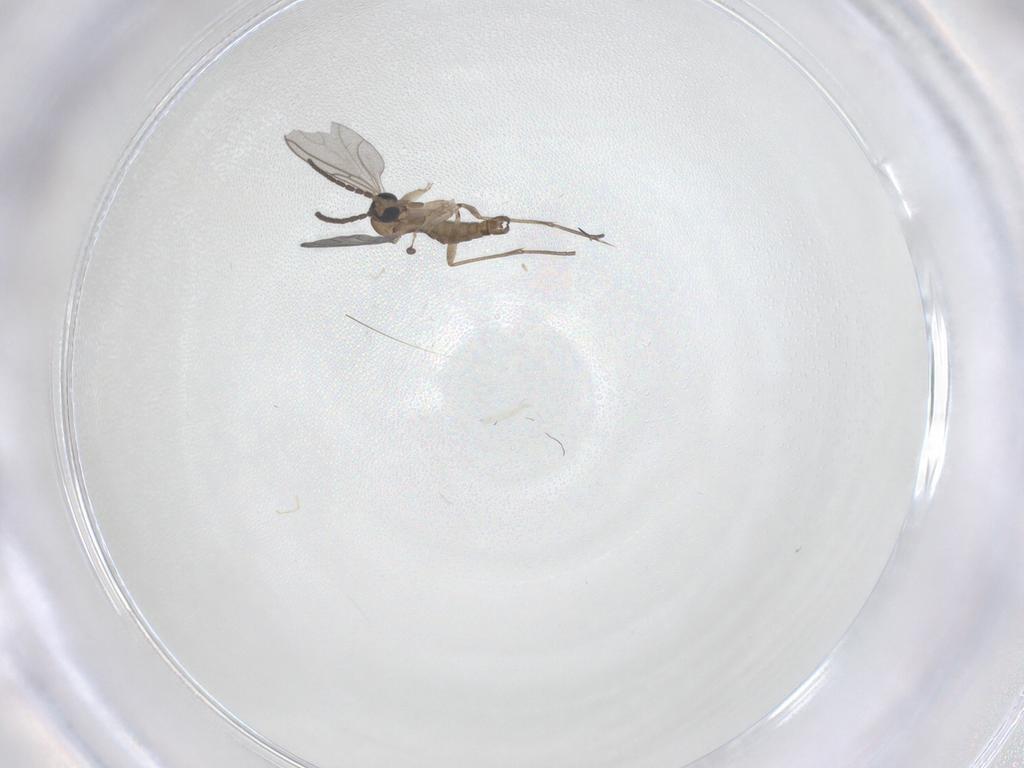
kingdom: Animalia
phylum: Arthropoda
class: Insecta
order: Diptera
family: Sciaridae
